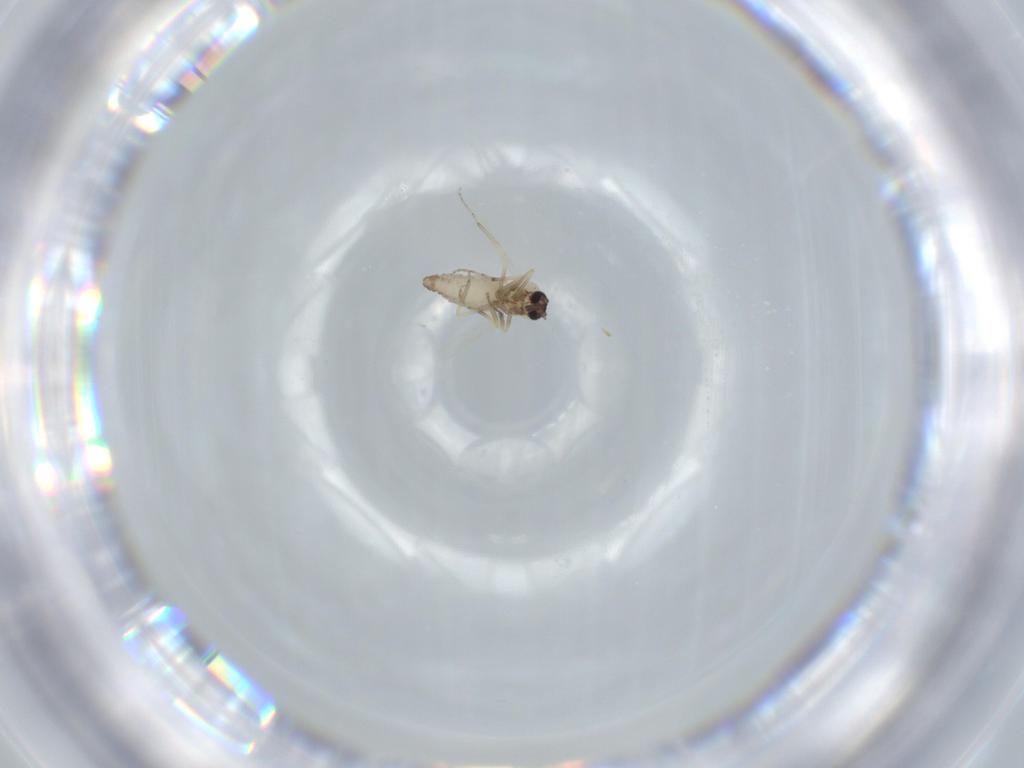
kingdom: Animalia
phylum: Arthropoda
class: Insecta
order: Diptera
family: Ceratopogonidae
